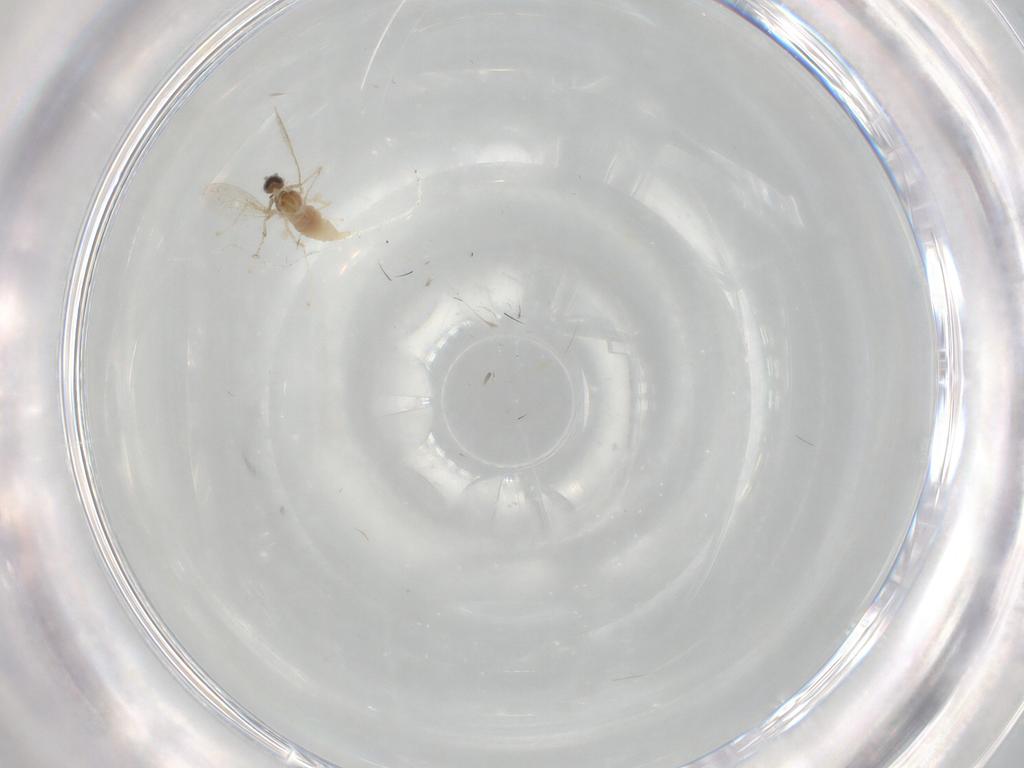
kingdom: Animalia
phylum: Arthropoda
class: Insecta
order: Diptera
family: Cecidomyiidae
